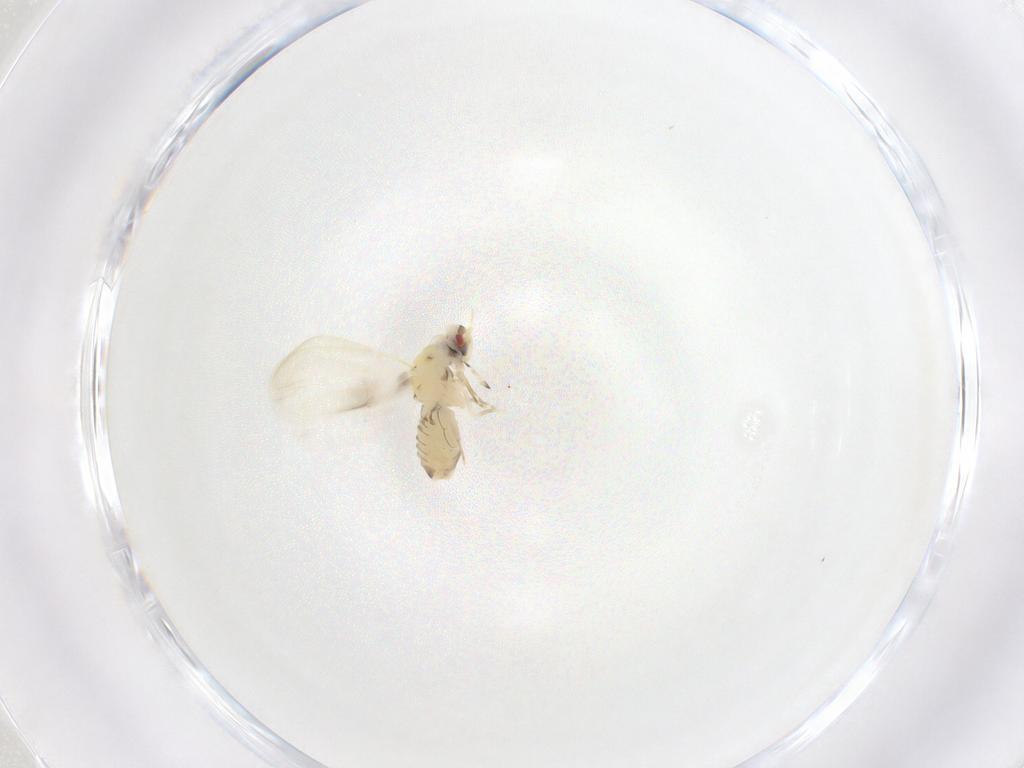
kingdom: Animalia
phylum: Arthropoda
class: Insecta
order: Hemiptera
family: Aleyrodidae
